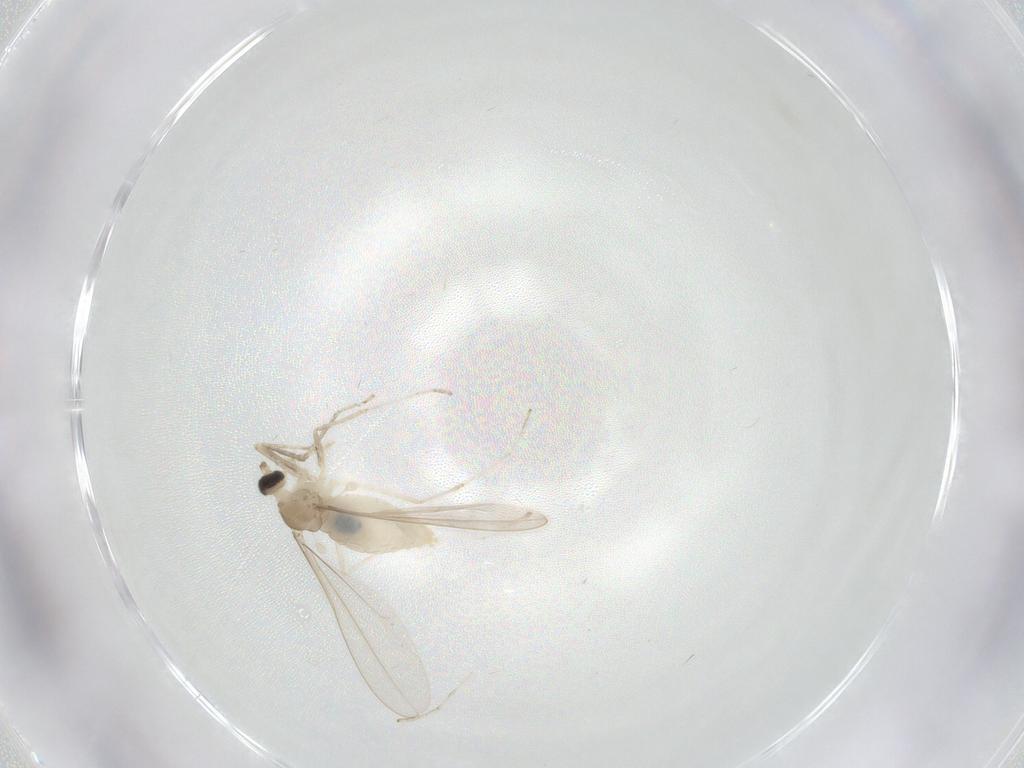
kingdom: Animalia
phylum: Arthropoda
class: Insecta
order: Diptera
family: Cecidomyiidae
